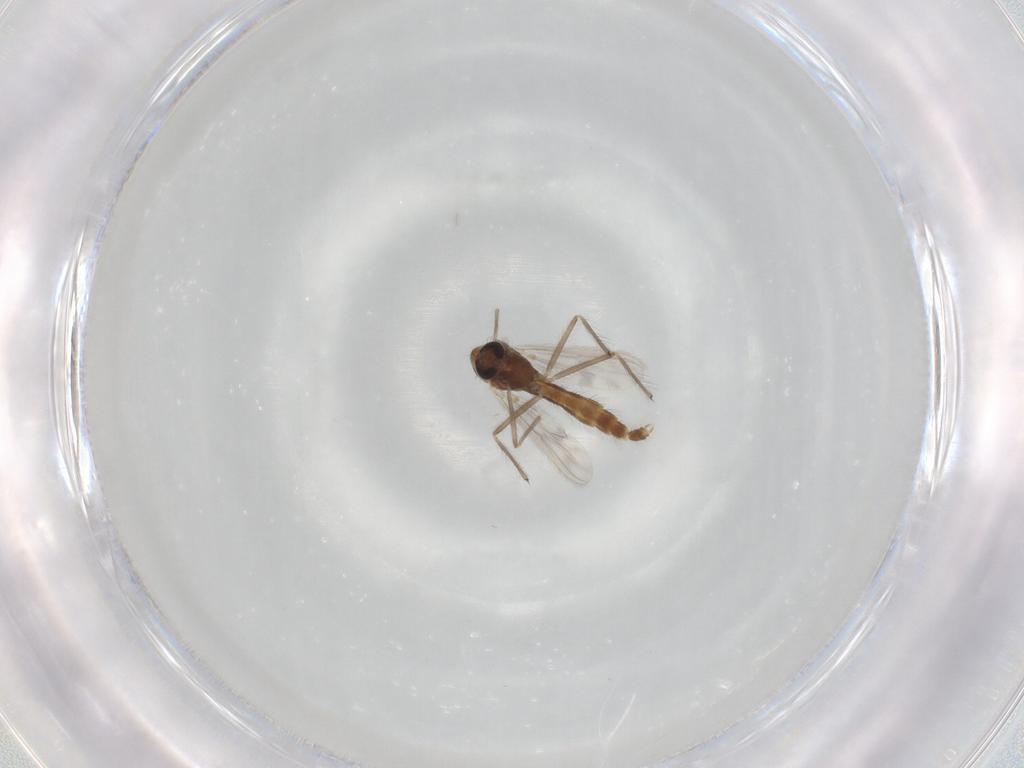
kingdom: Animalia
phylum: Arthropoda
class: Insecta
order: Diptera
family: Chironomidae
